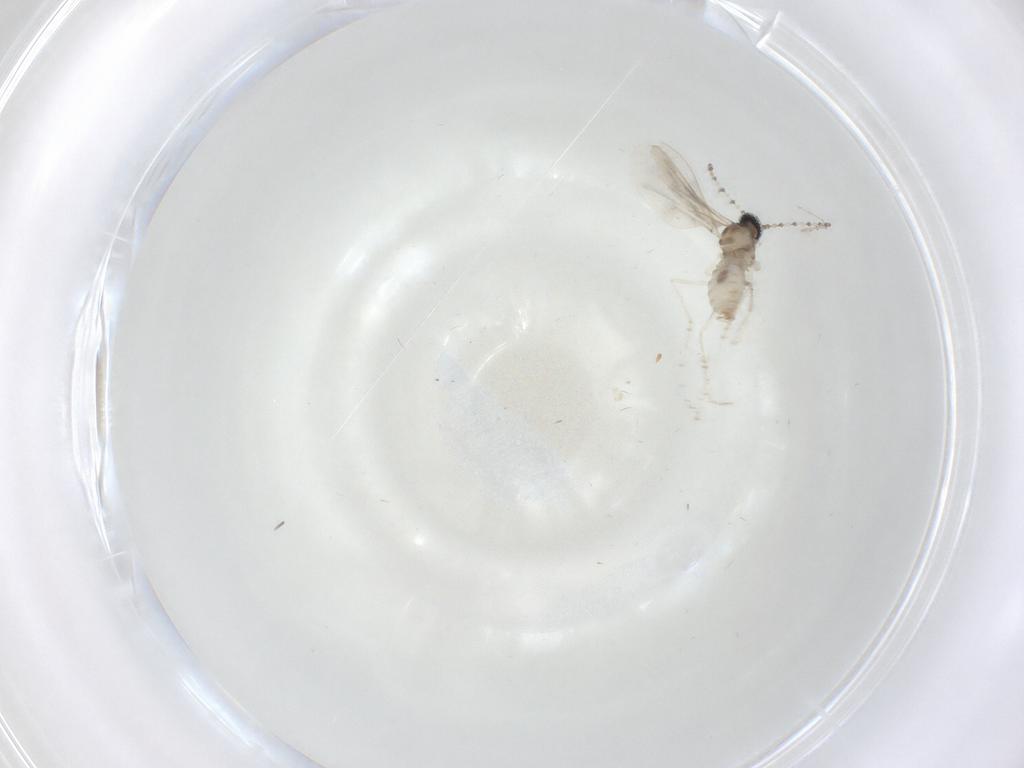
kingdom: Animalia
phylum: Arthropoda
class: Insecta
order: Diptera
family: Cecidomyiidae
